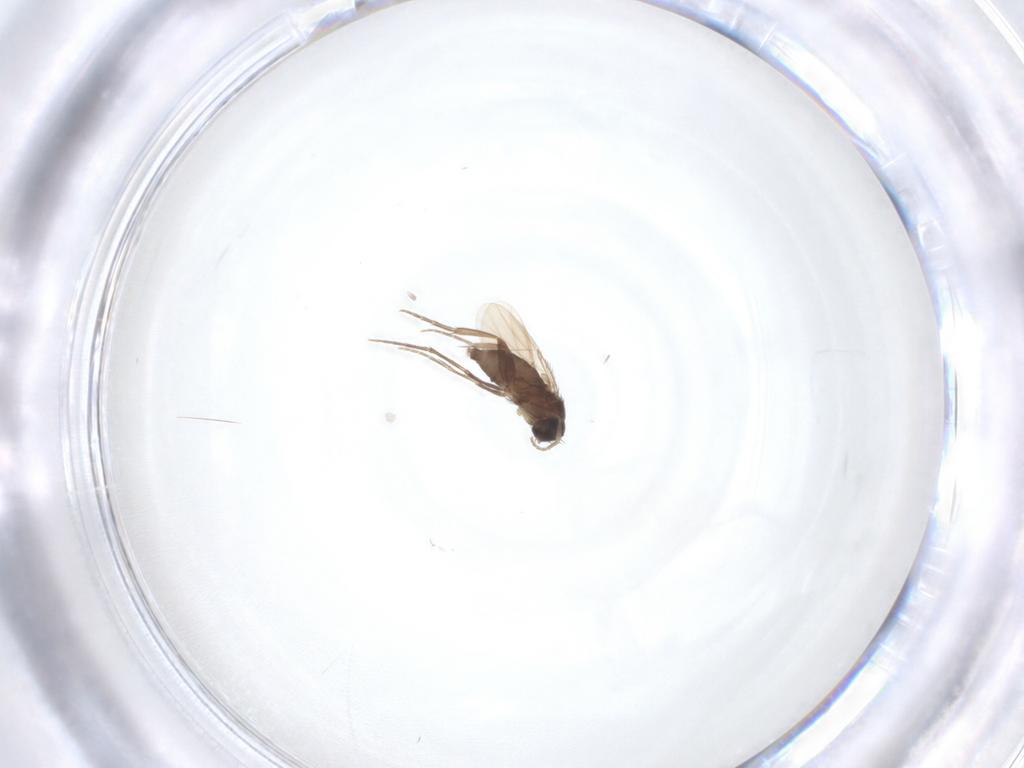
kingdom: Animalia
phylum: Arthropoda
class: Insecta
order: Diptera
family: Phoridae
